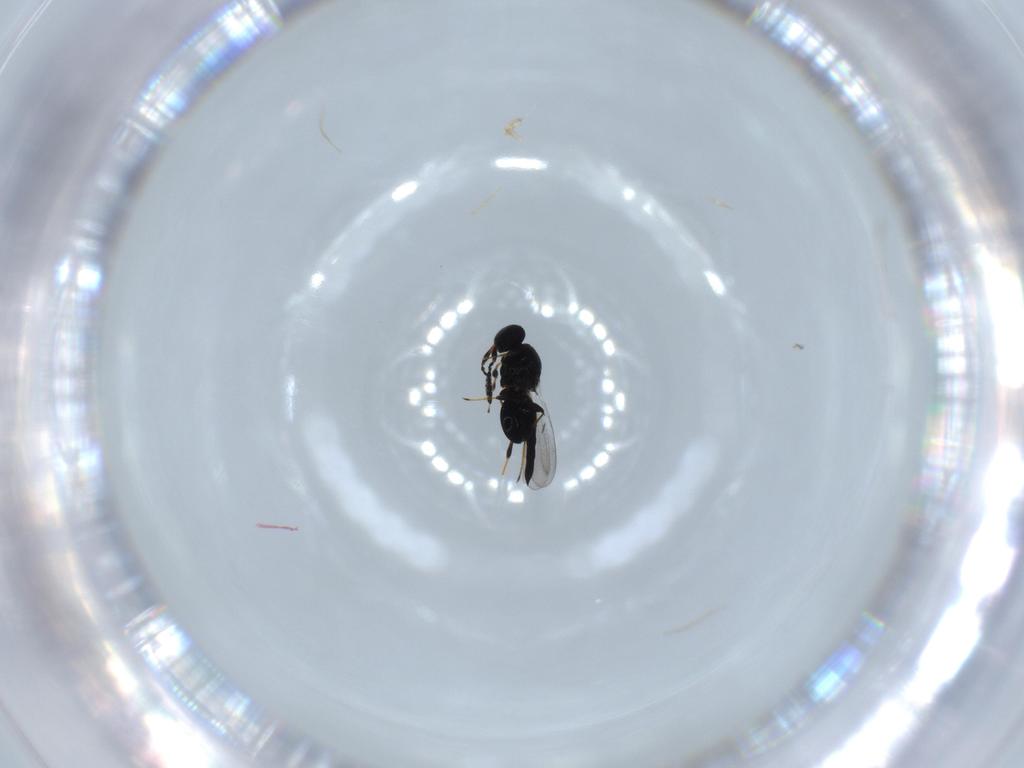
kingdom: Animalia
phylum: Arthropoda
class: Insecta
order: Hymenoptera
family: Platygastridae
